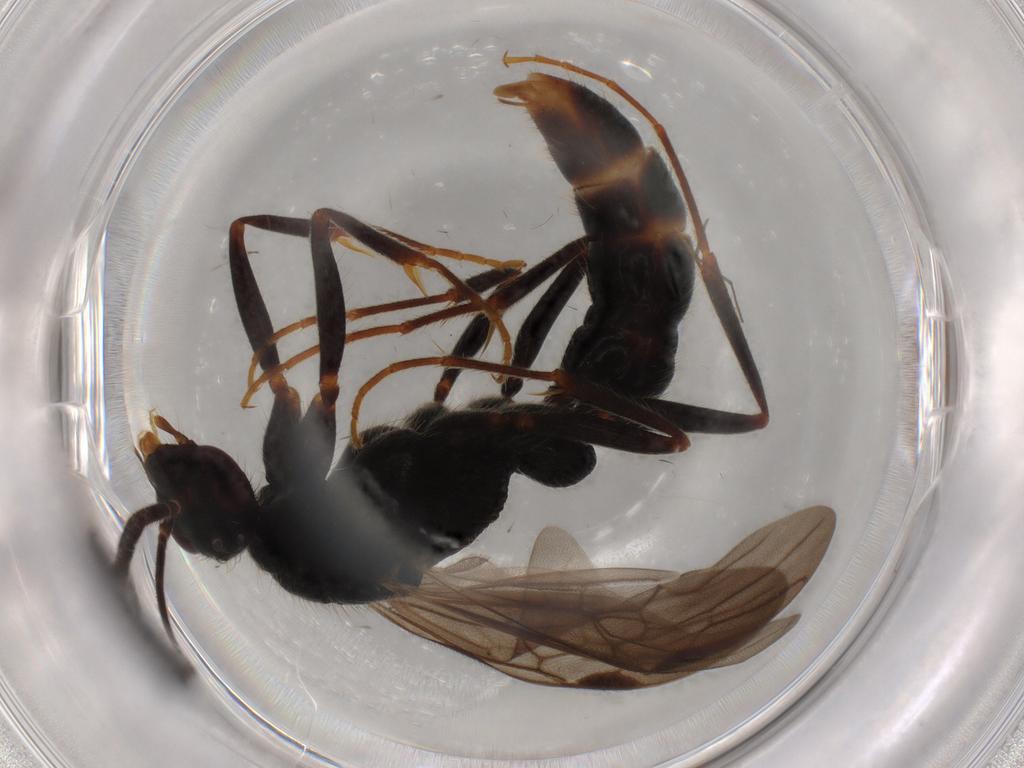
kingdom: Animalia
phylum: Arthropoda
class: Insecta
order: Hymenoptera
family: Formicidae
